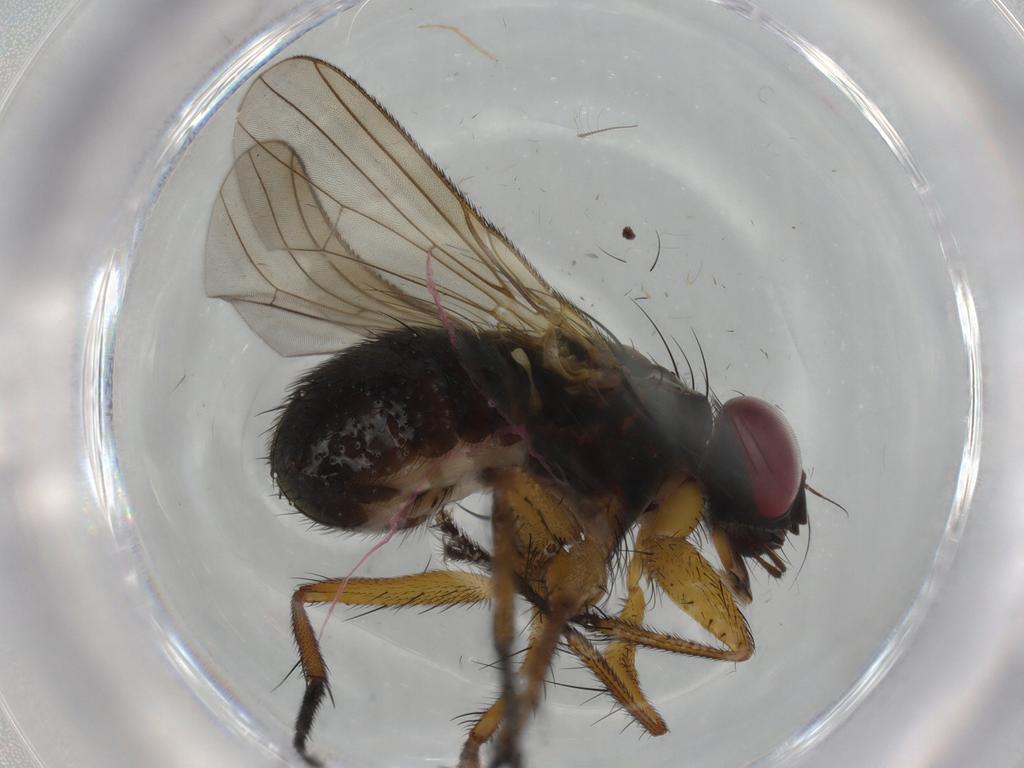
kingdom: Animalia
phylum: Arthropoda
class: Insecta
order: Diptera
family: Muscidae
